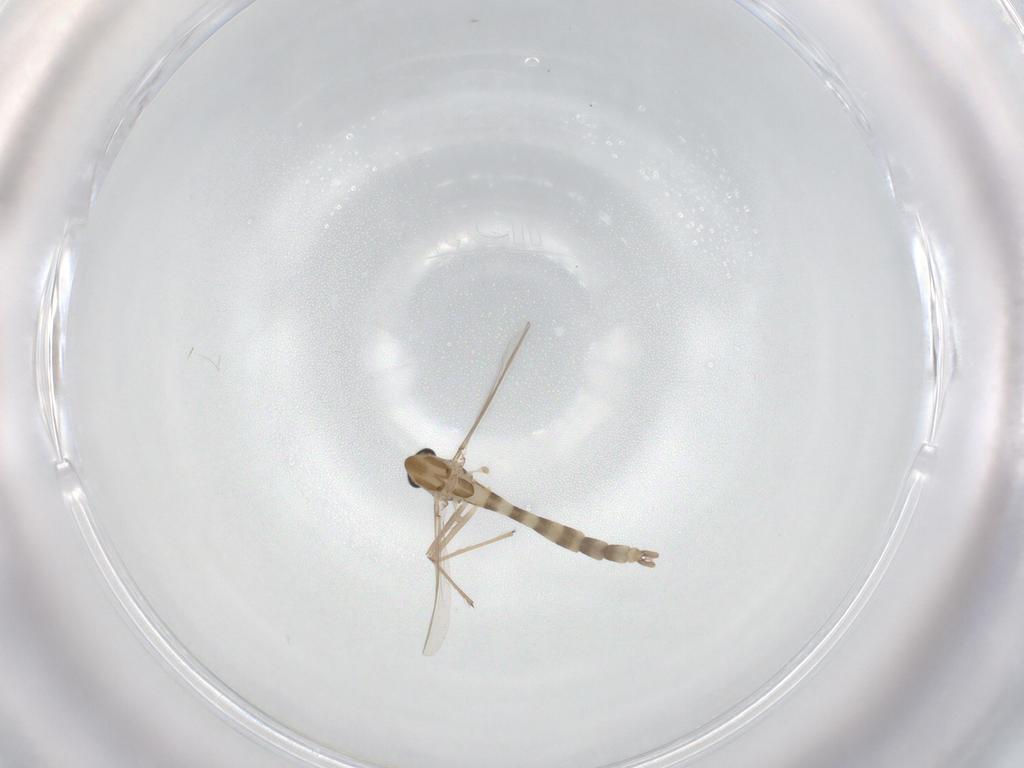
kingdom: Animalia
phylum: Arthropoda
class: Insecta
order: Diptera
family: Chironomidae
